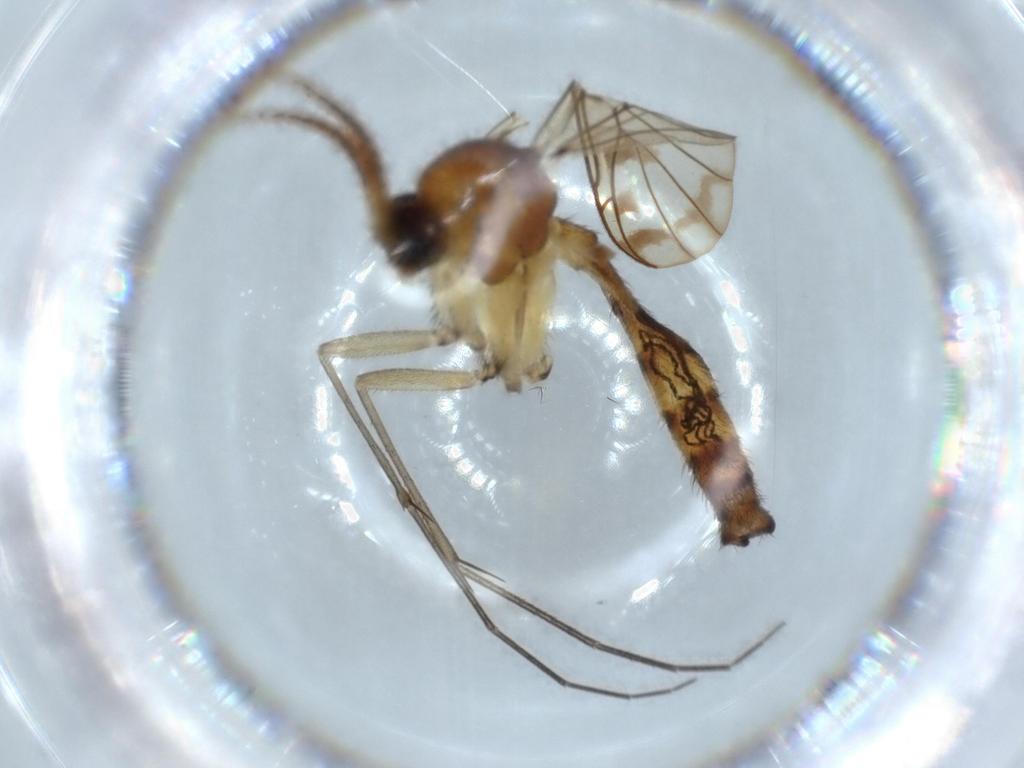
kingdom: Animalia
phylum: Arthropoda
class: Insecta
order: Diptera
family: Sciaridae
